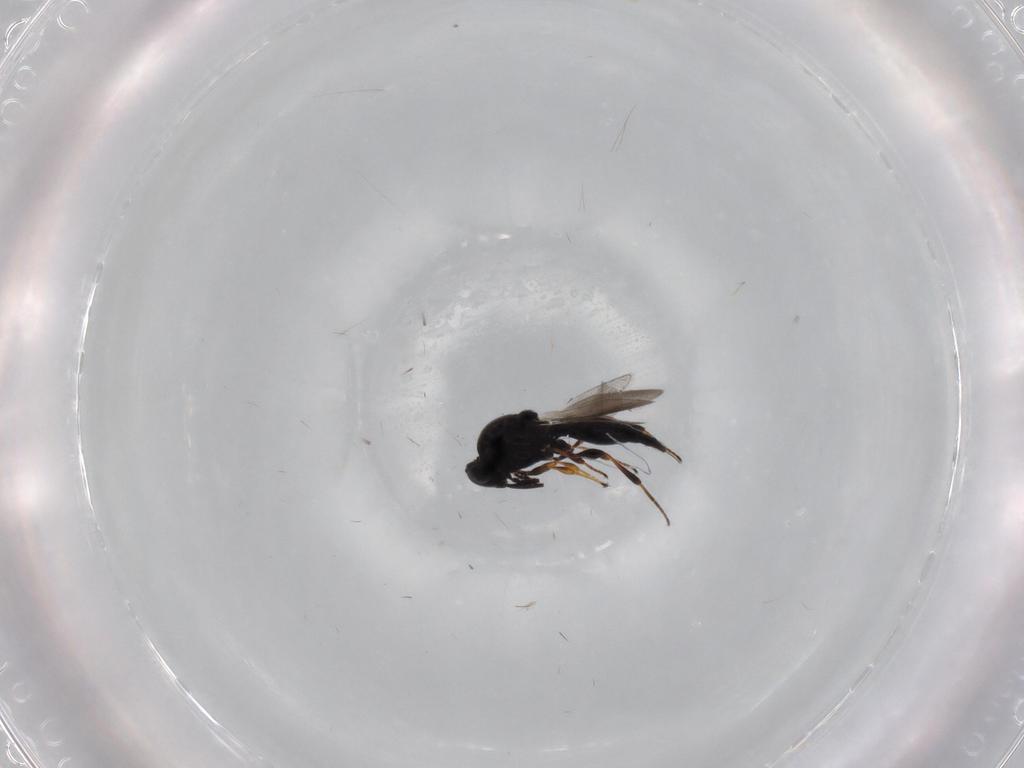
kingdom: Animalia
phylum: Arthropoda
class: Insecta
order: Hymenoptera
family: Platygastridae
